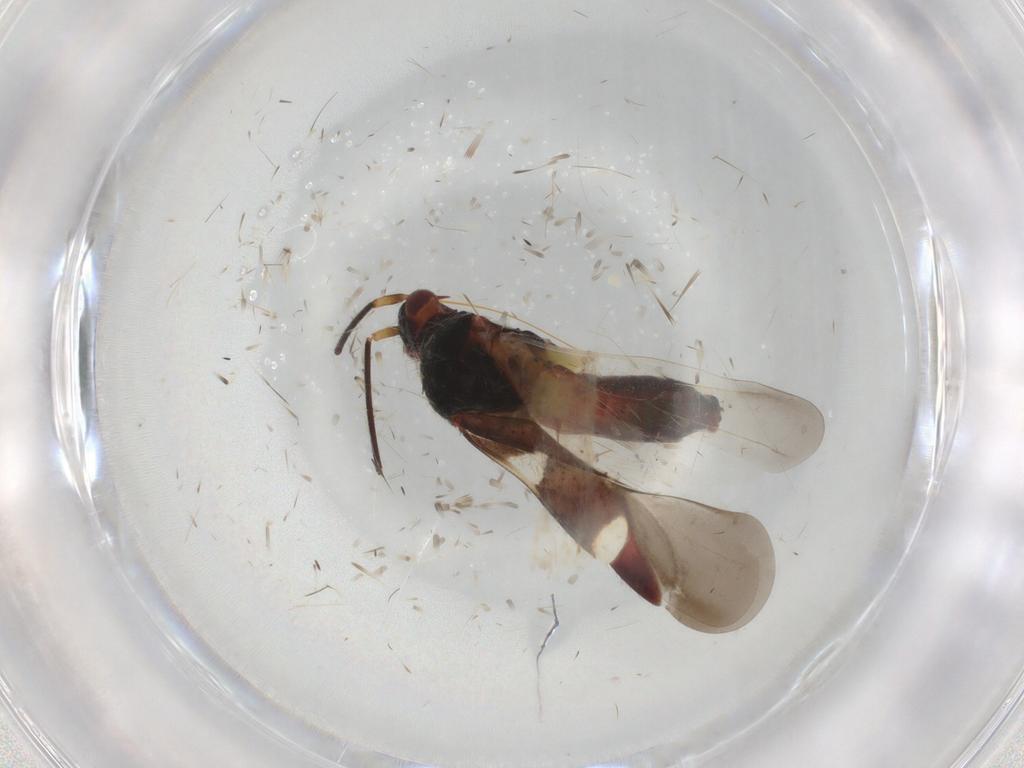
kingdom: Animalia
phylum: Arthropoda
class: Insecta
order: Hemiptera
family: Miridae
